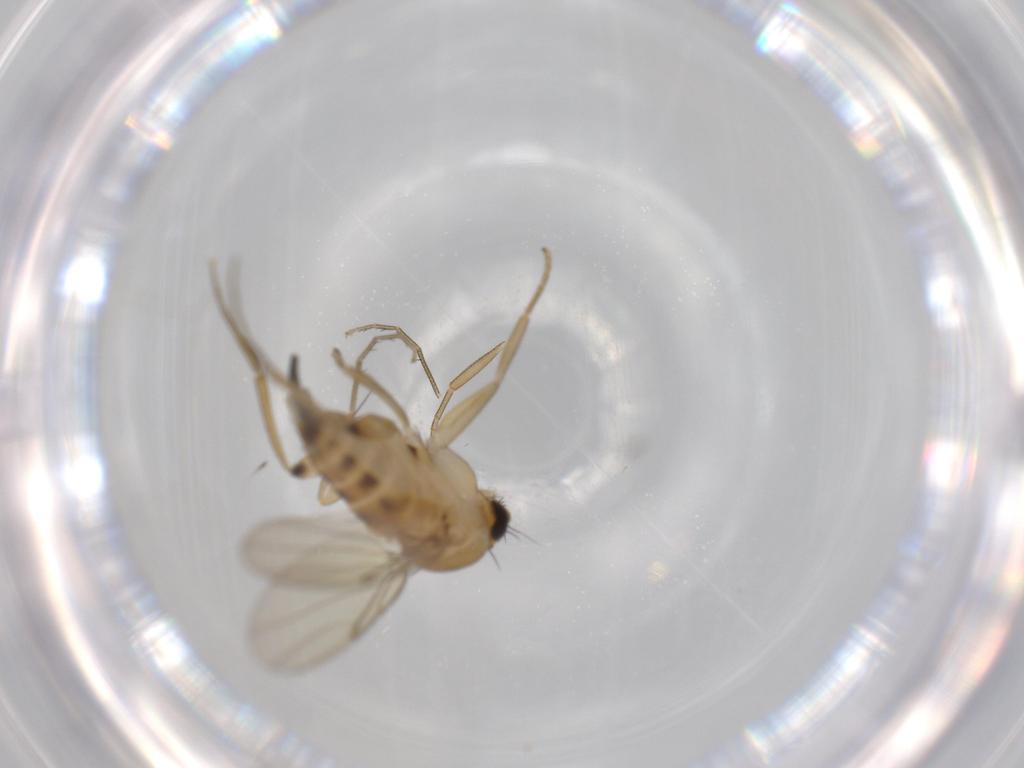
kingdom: Animalia
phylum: Arthropoda
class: Insecta
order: Diptera
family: Phoridae
